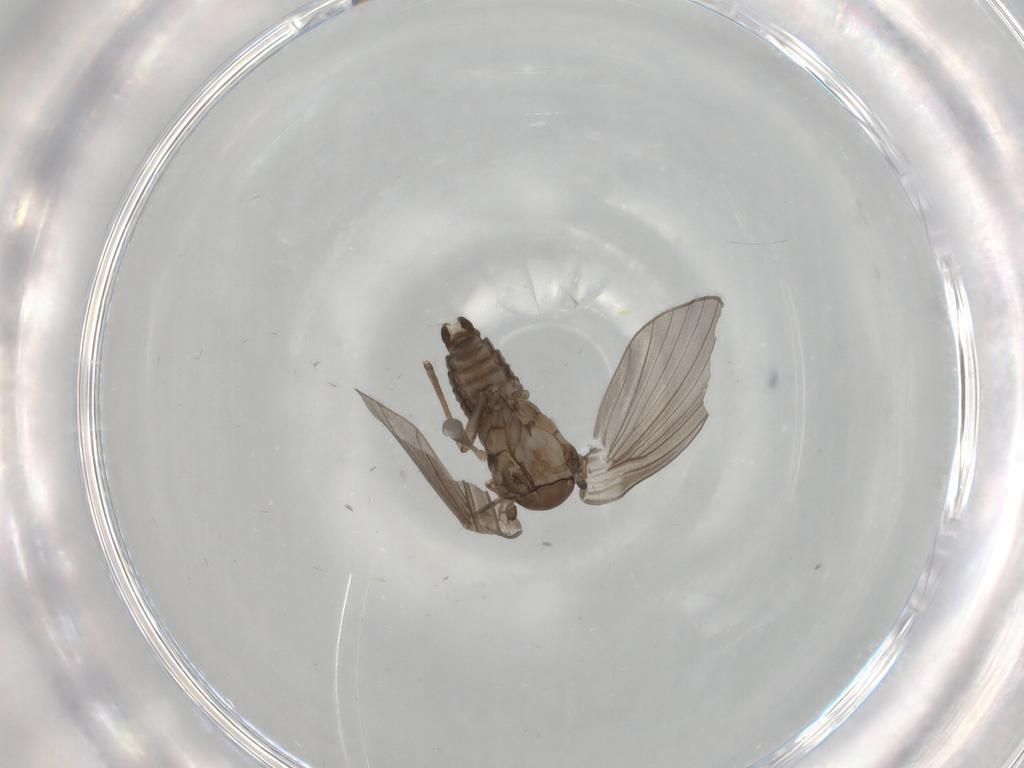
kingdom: Animalia
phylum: Arthropoda
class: Insecta
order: Diptera
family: Psychodidae
